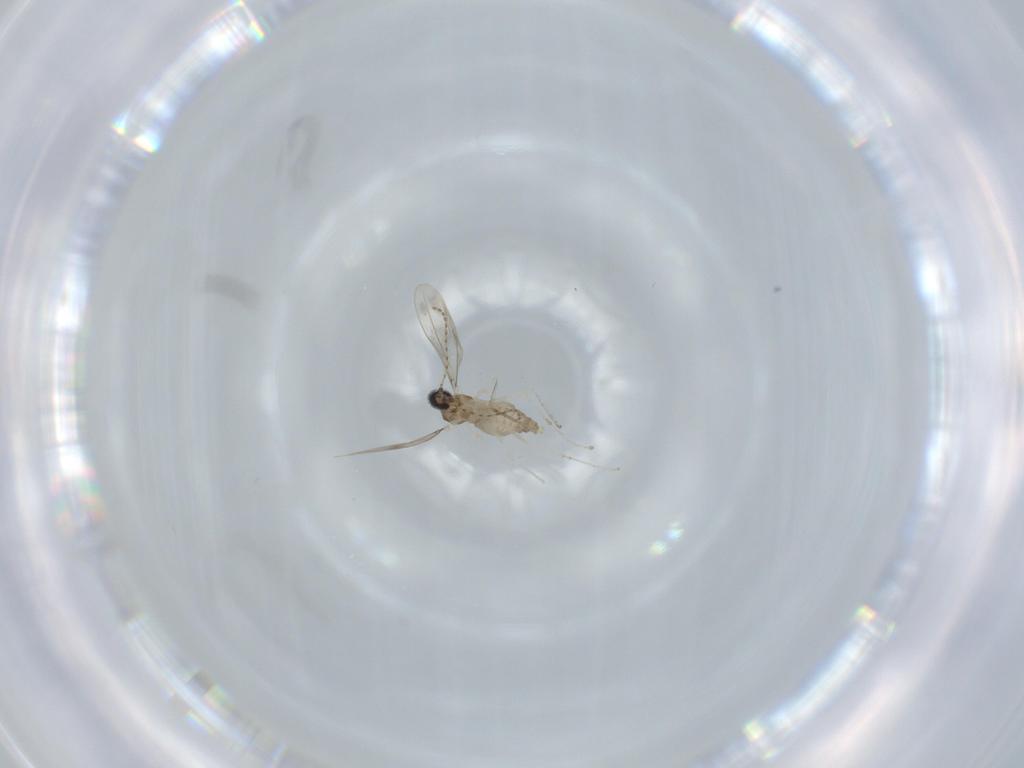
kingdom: Animalia
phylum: Arthropoda
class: Insecta
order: Diptera
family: Cecidomyiidae
